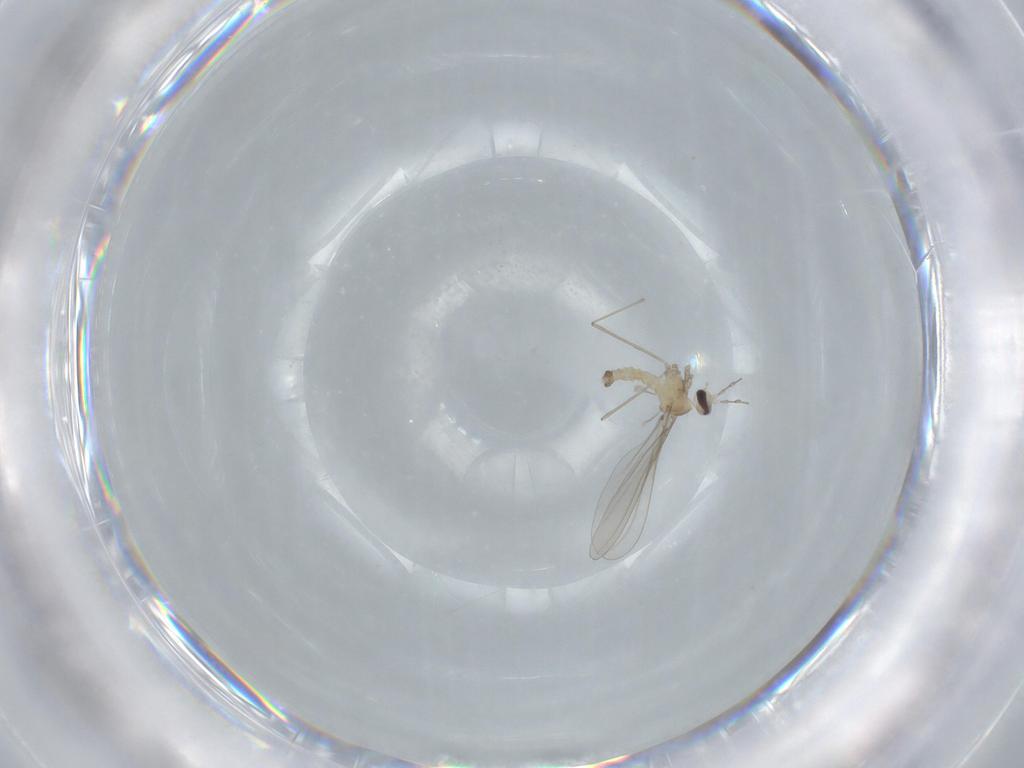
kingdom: Animalia
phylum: Arthropoda
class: Insecta
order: Diptera
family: Cecidomyiidae
